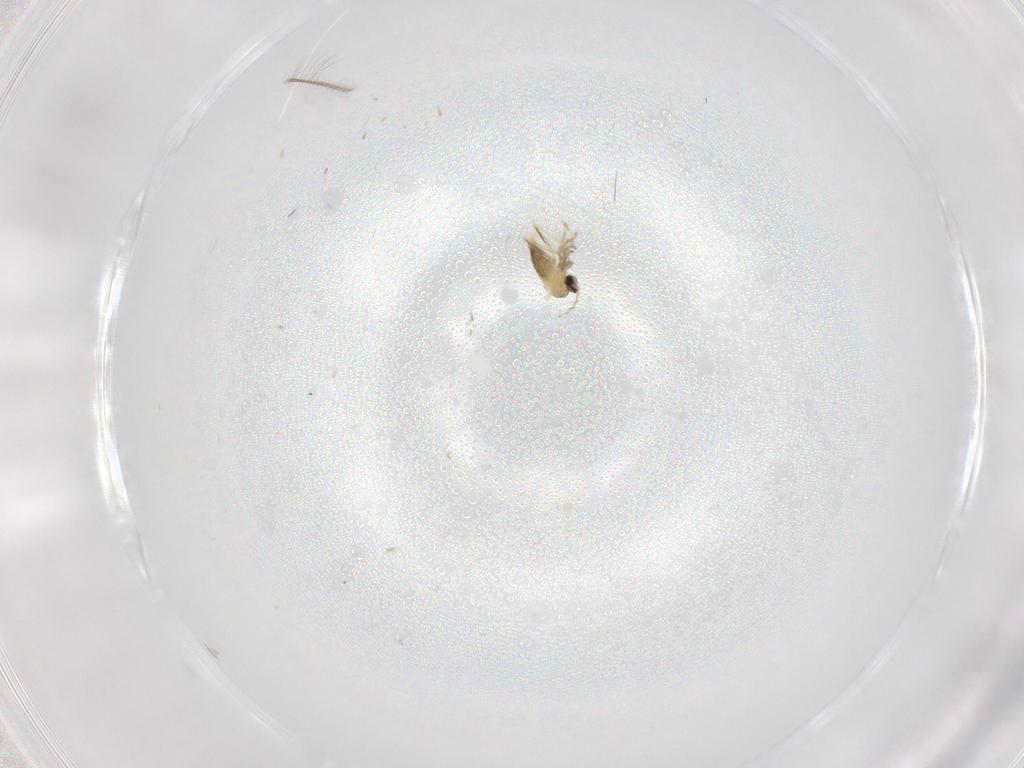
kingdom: Animalia
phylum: Arthropoda
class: Insecta
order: Diptera
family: Cecidomyiidae
